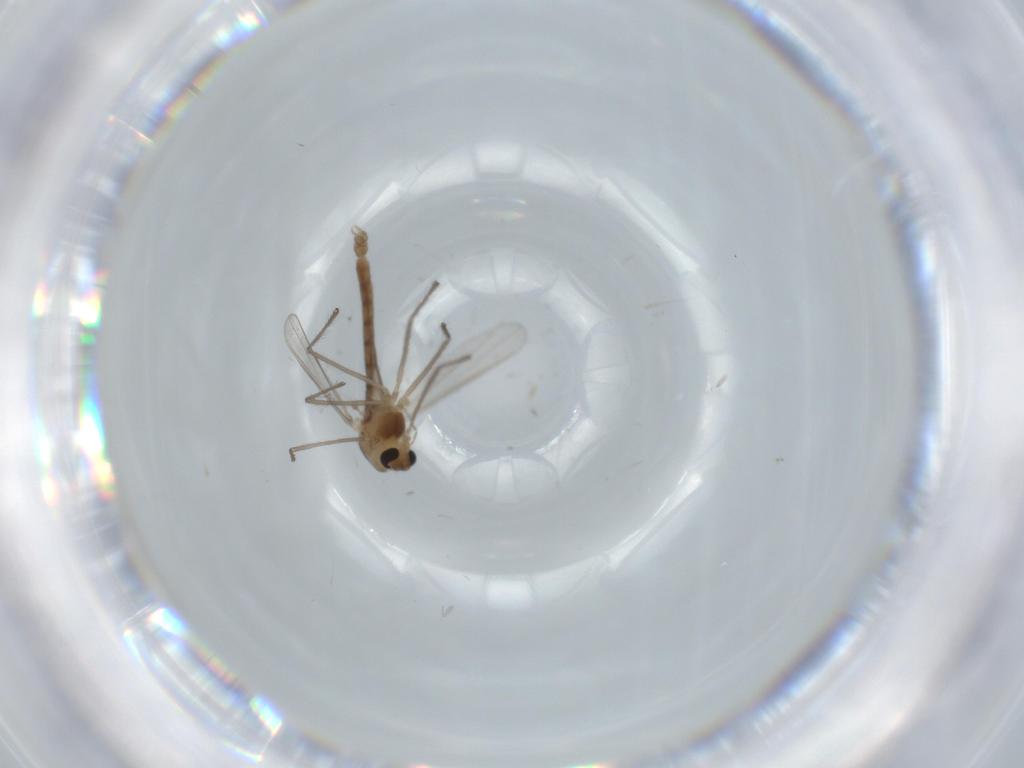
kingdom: Animalia
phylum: Arthropoda
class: Insecta
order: Diptera
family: Chironomidae
